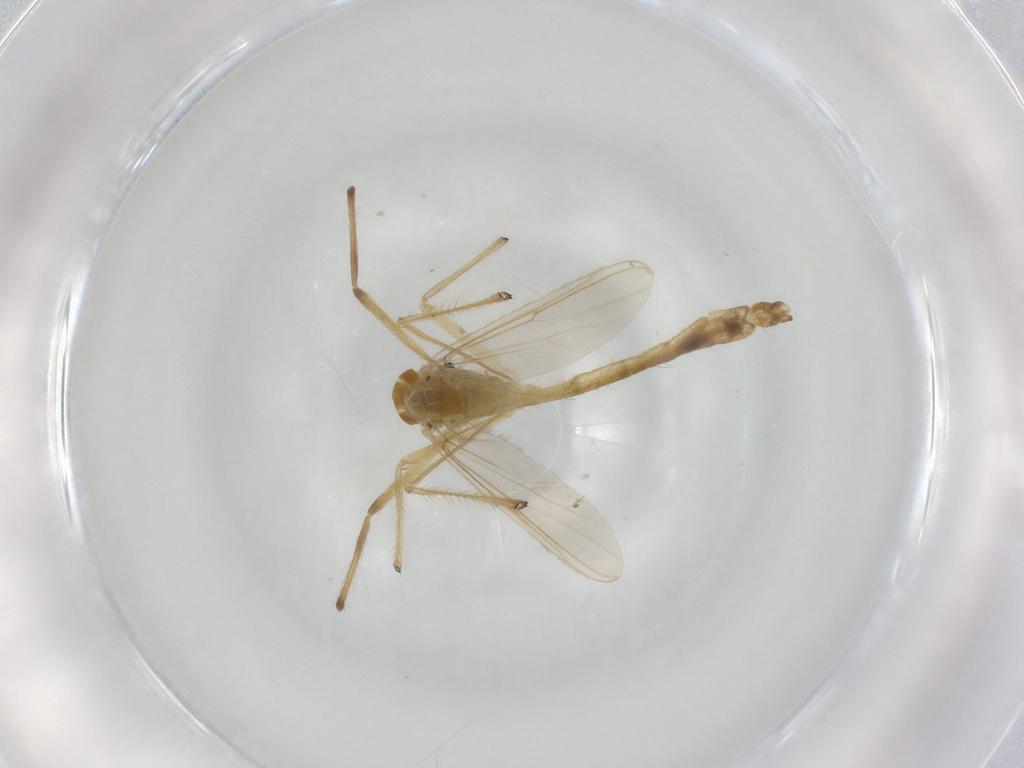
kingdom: Animalia
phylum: Arthropoda
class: Insecta
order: Diptera
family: Chironomidae
